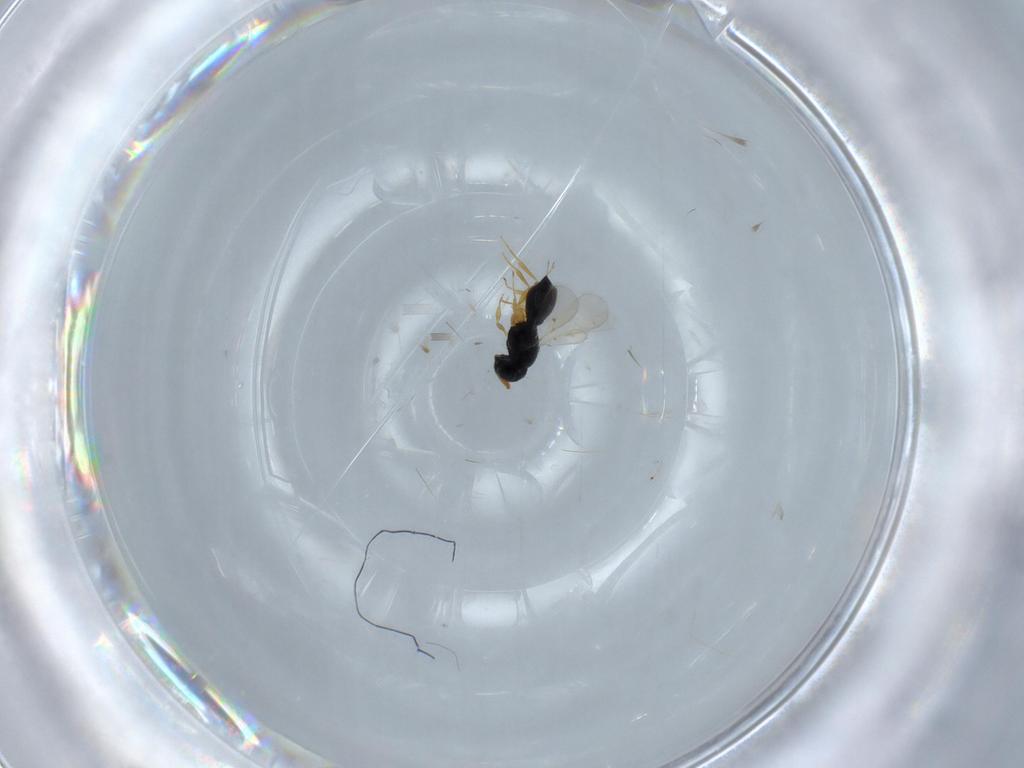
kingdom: Animalia
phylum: Arthropoda
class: Insecta
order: Hymenoptera
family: Scelionidae
